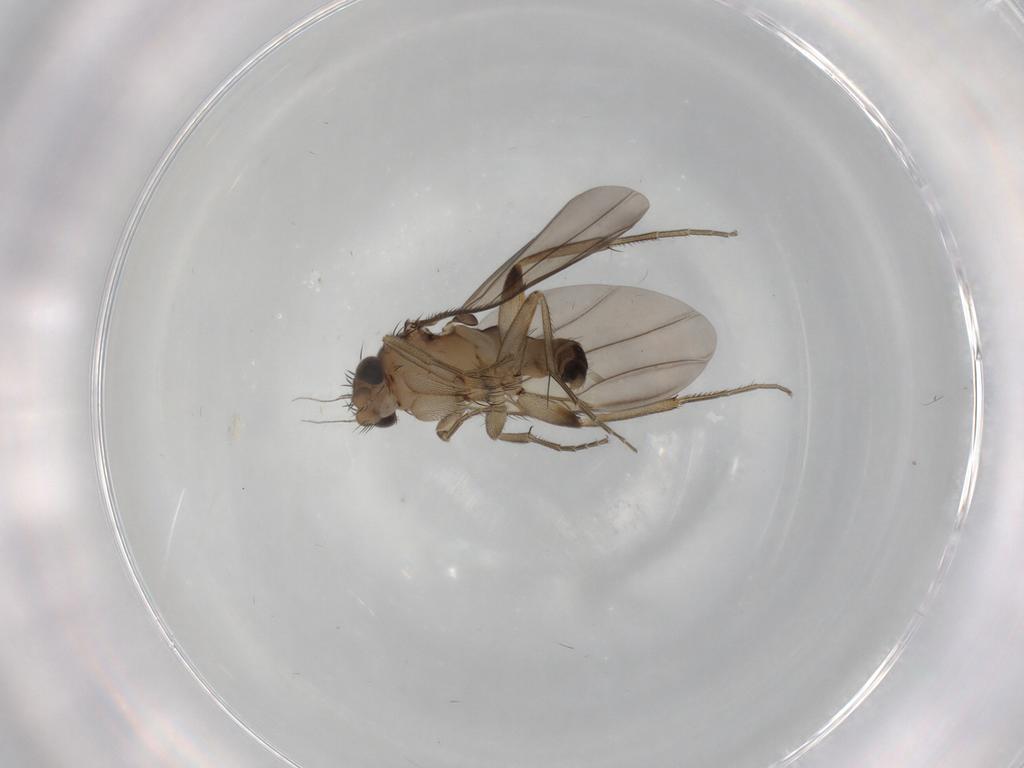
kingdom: Animalia
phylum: Arthropoda
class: Insecta
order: Diptera
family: Phoridae
